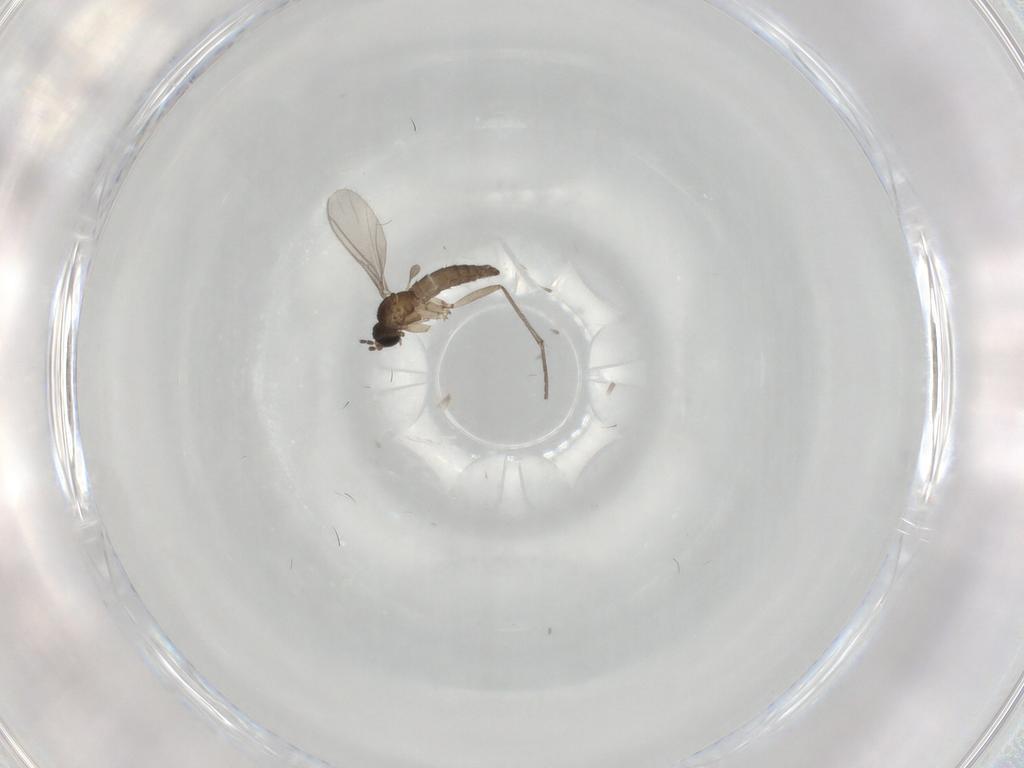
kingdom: Animalia
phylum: Arthropoda
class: Insecta
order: Diptera
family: Sciaridae
